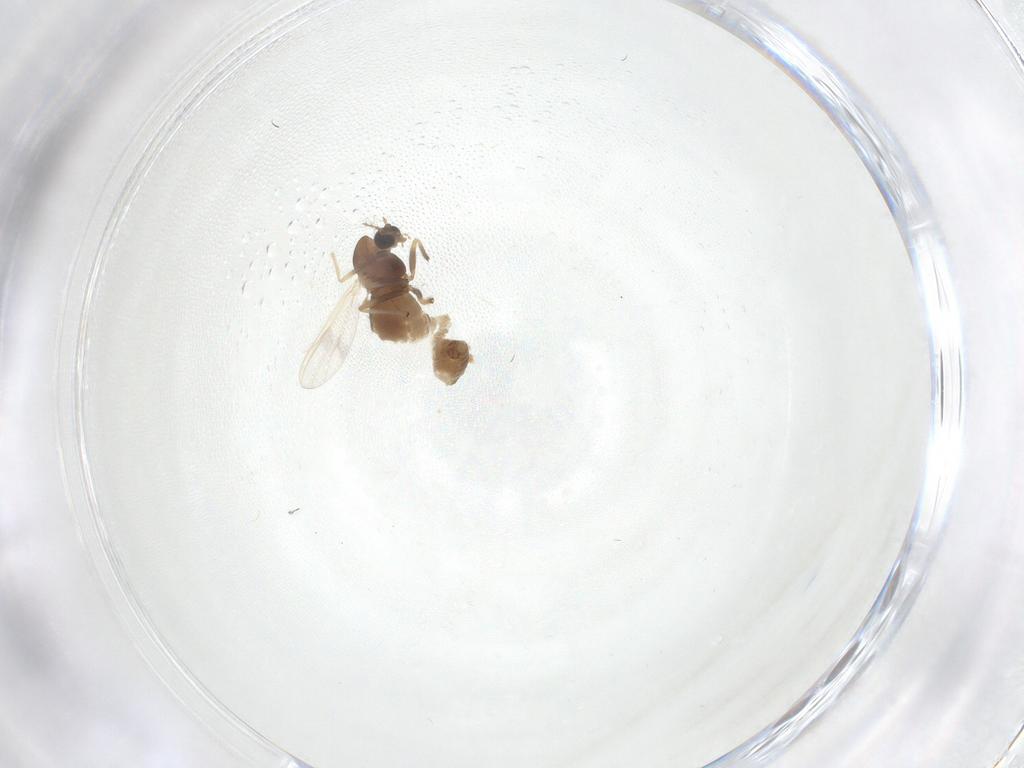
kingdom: Animalia
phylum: Arthropoda
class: Insecta
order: Diptera
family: Chironomidae
